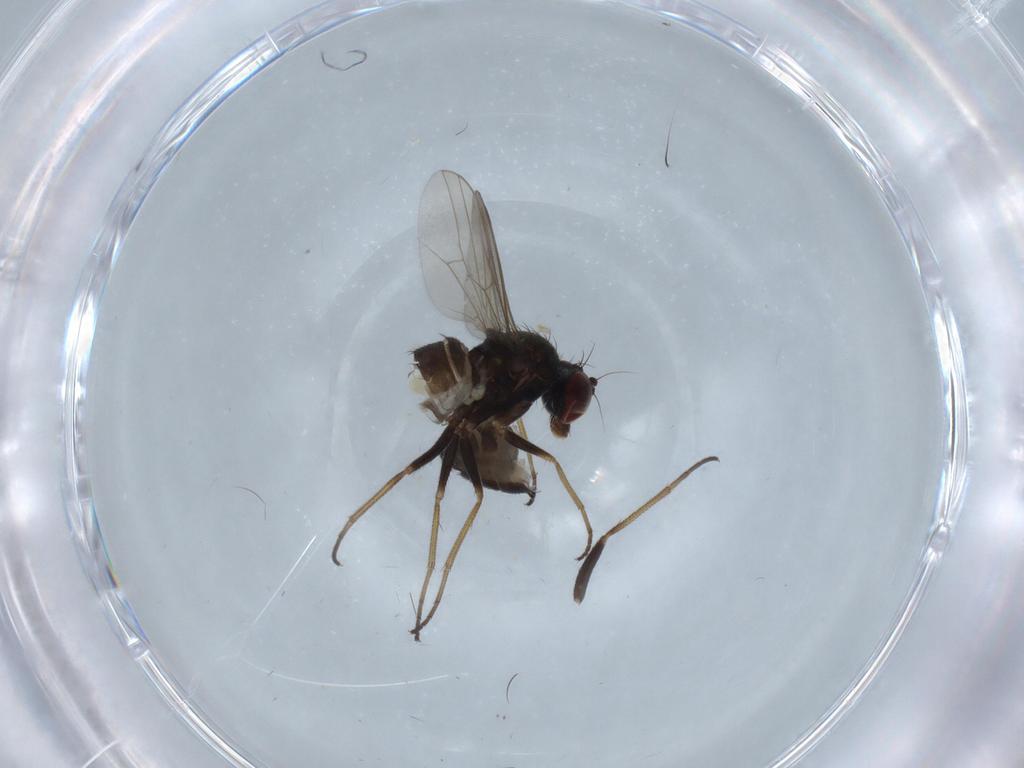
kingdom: Animalia
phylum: Arthropoda
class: Insecta
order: Diptera
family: Dolichopodidae
